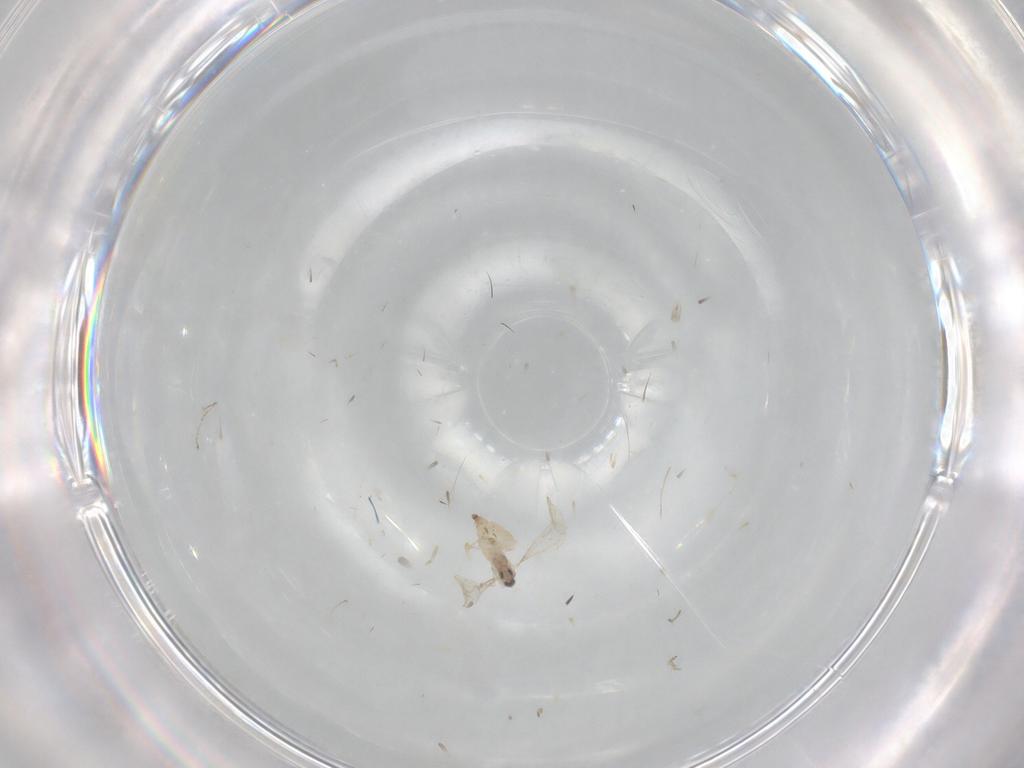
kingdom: Animalia
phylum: Arthropoda
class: Insecta
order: Diptera
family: Cecidomyiidae
